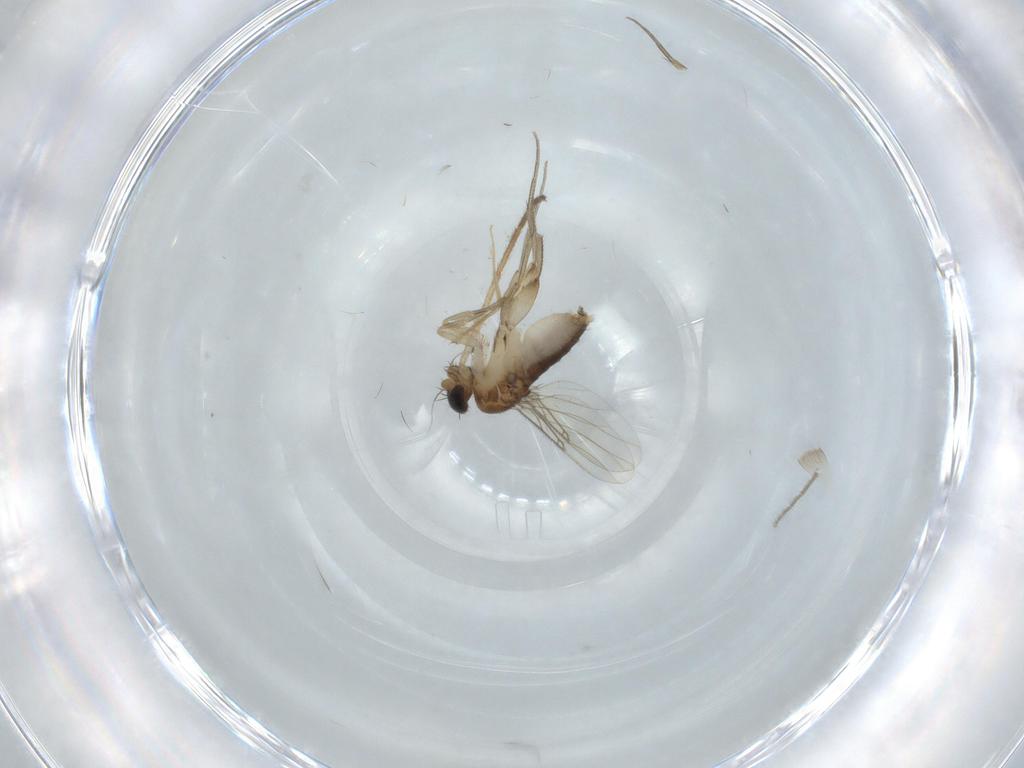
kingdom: Animalia
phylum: Arthropoda
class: Insecta
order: Diptera
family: Phoridae
